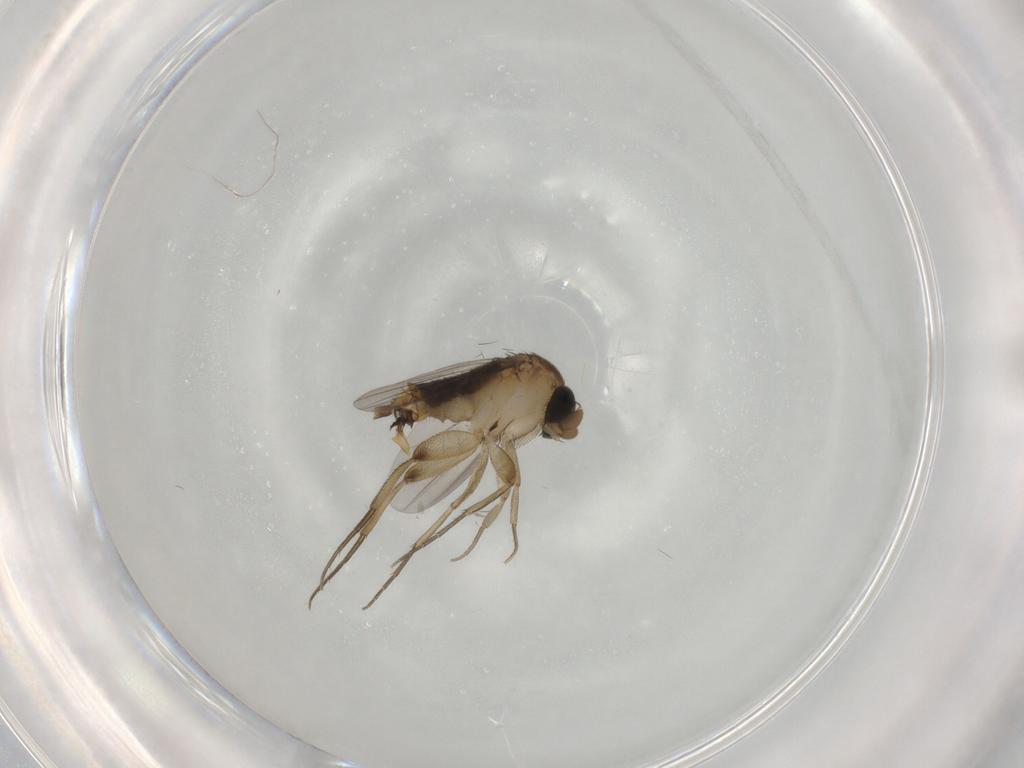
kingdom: Animalia
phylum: Arthropoda
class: Insecta
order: Diptera
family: Phoridae
